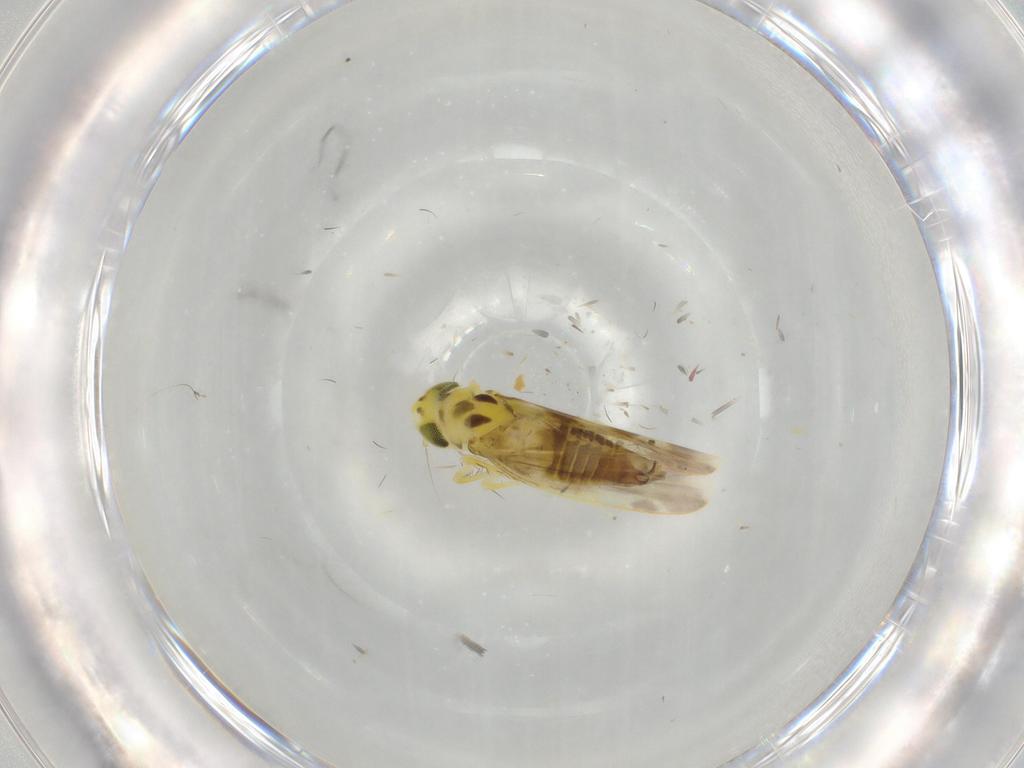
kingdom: Animalia
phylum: Arthropoda
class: Insecta
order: Hemiptera
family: Cicadellidae
